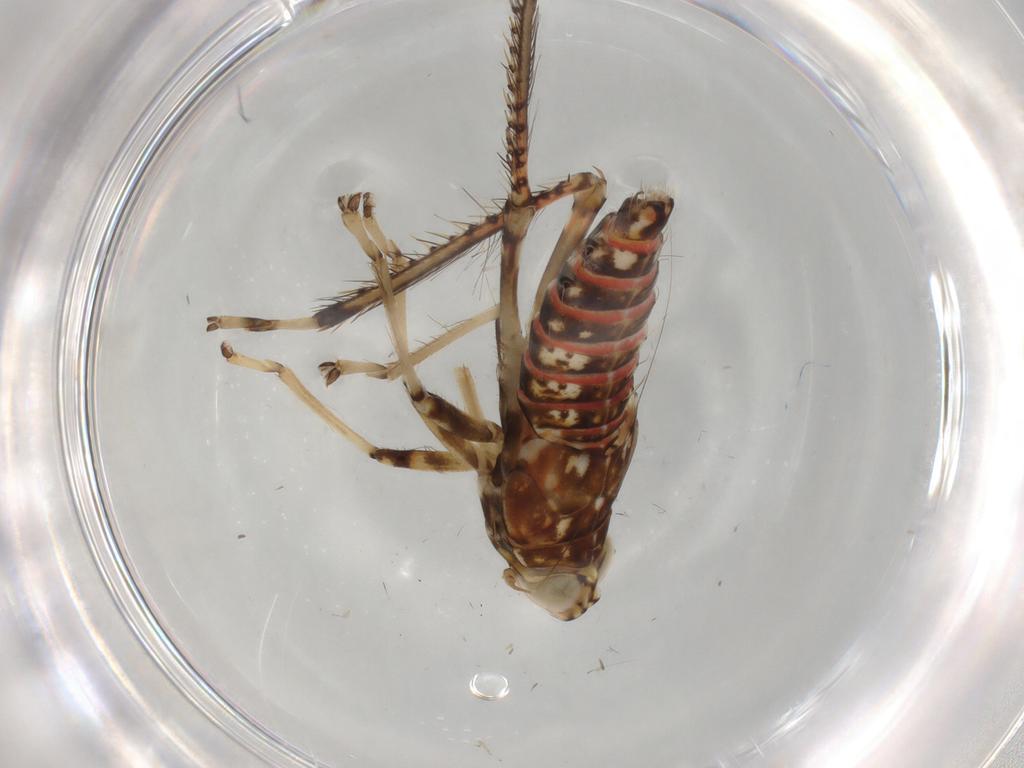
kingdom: Animalia
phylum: Arthropoda
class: Insecta
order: Hemiptera
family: Cicadellidae
